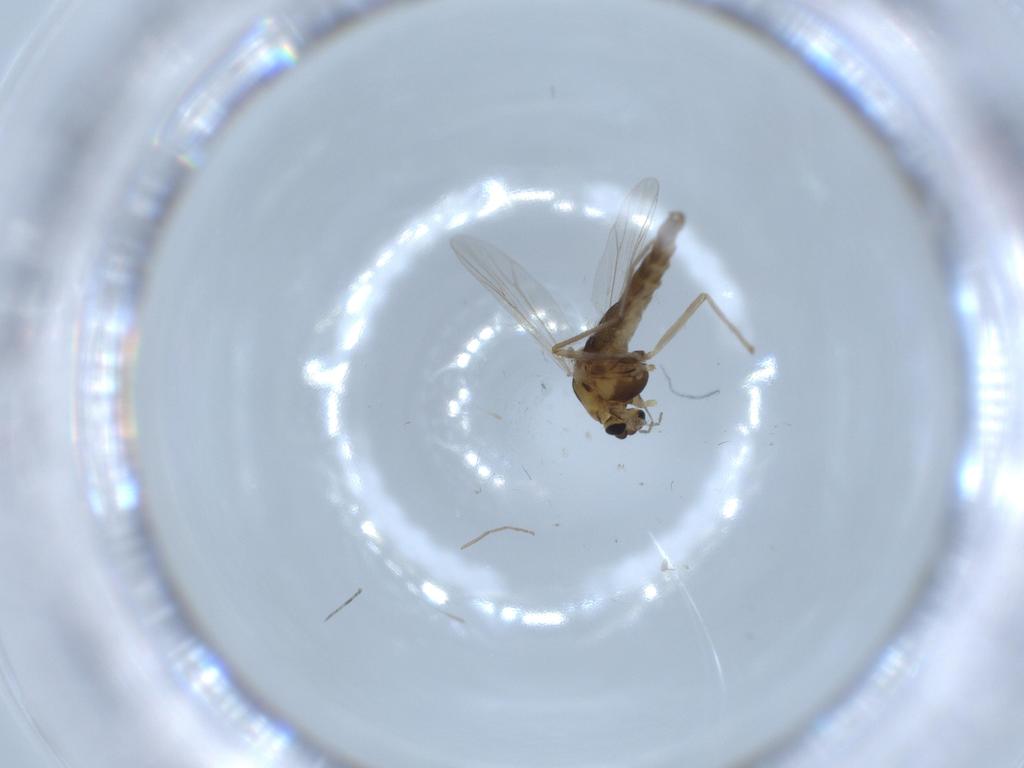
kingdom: Animalia
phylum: Arthropoda
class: Insecta
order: Diptera
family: Chironomidae
